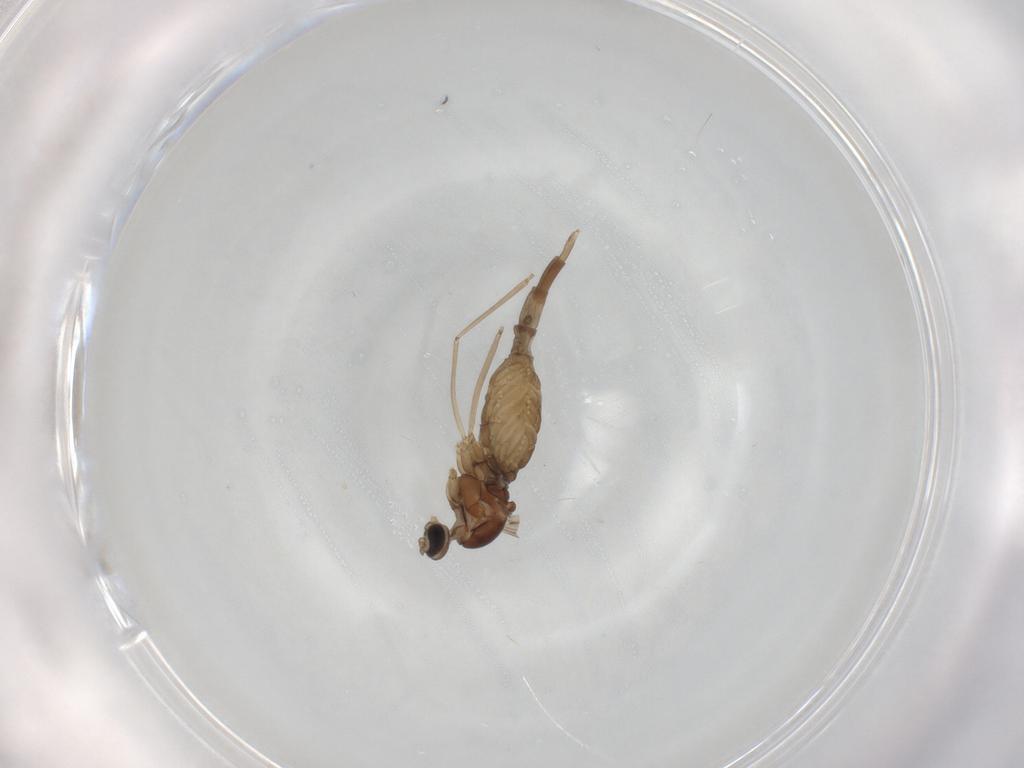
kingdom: Animalia
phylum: Arthropoda
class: Insecta
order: Diptera
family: Cecidomyiidae
